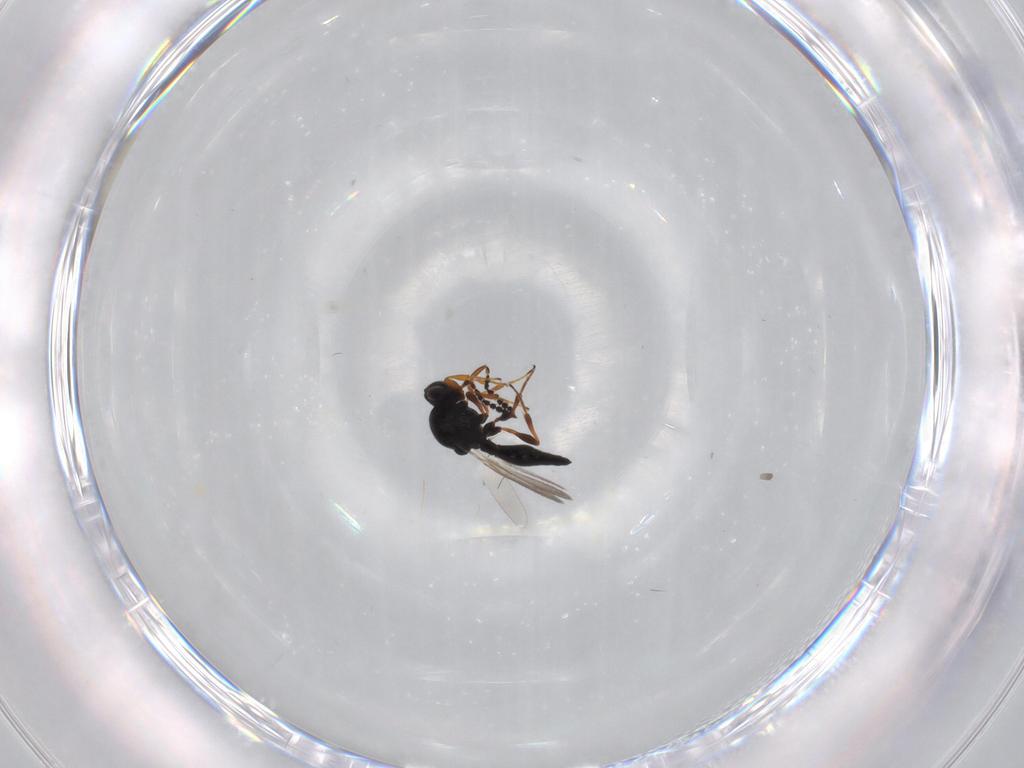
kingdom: Animalia
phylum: Arthropoda
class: Insecta
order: Hymenoptera
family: Platygastridae
